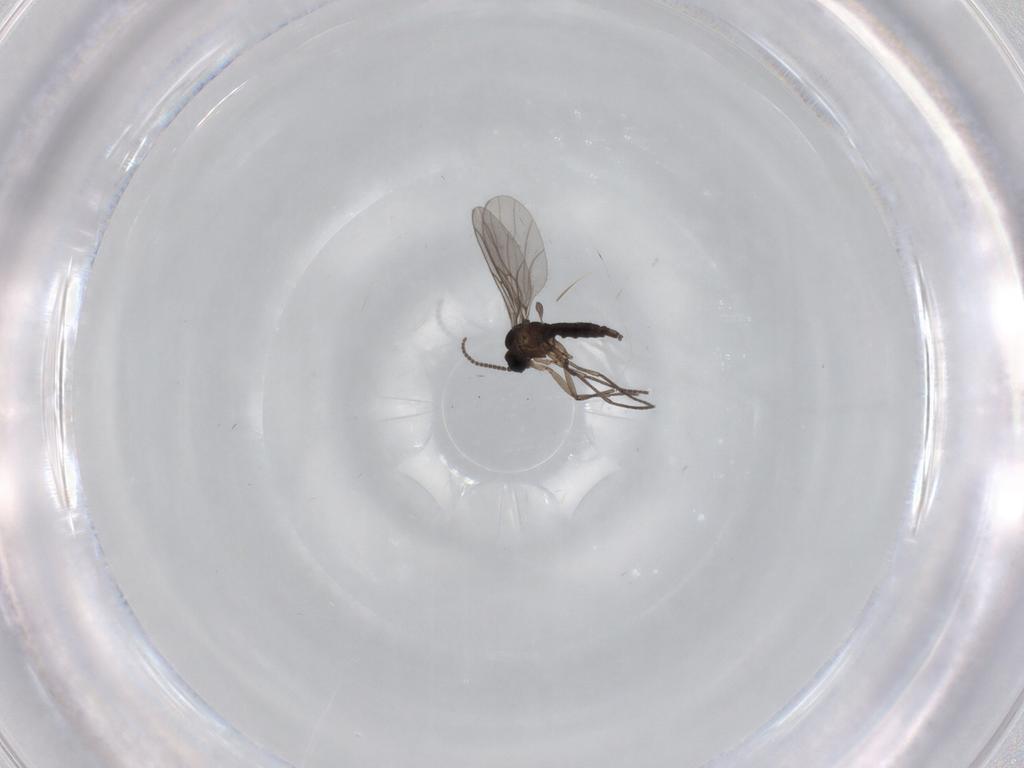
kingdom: Animalia
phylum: Arthropoda
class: Insecta
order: Diptera
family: Sciaridae
